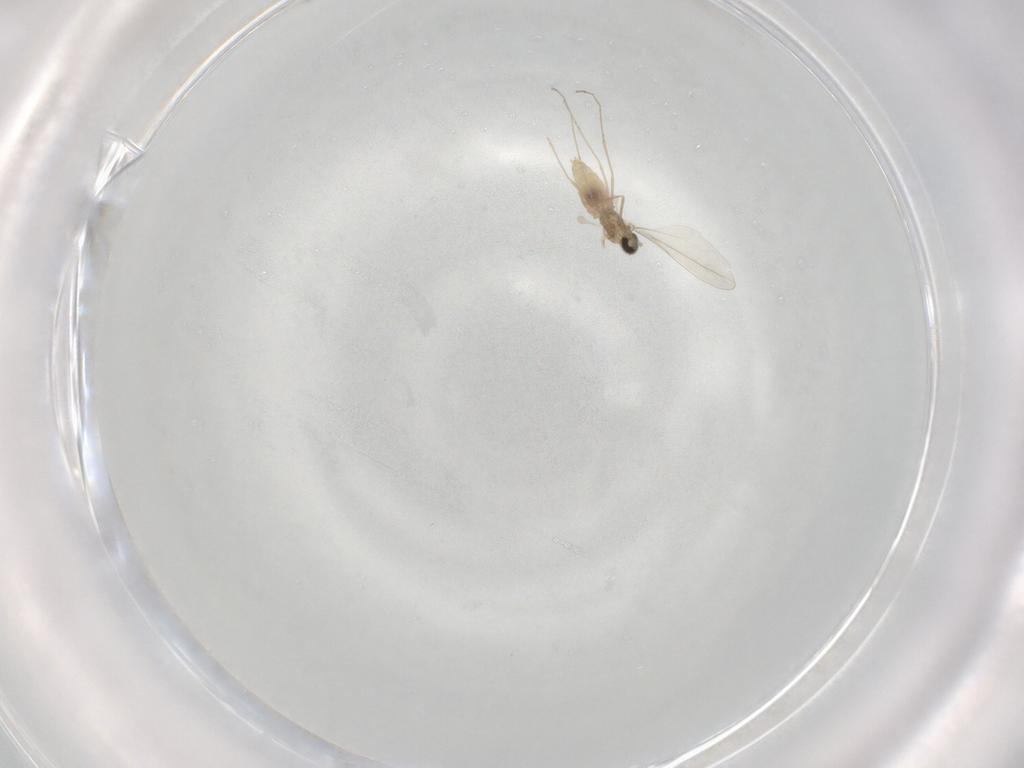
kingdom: Animalia
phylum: Arthropoda
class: Insecta
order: Diptera
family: Cecidomyiidae
